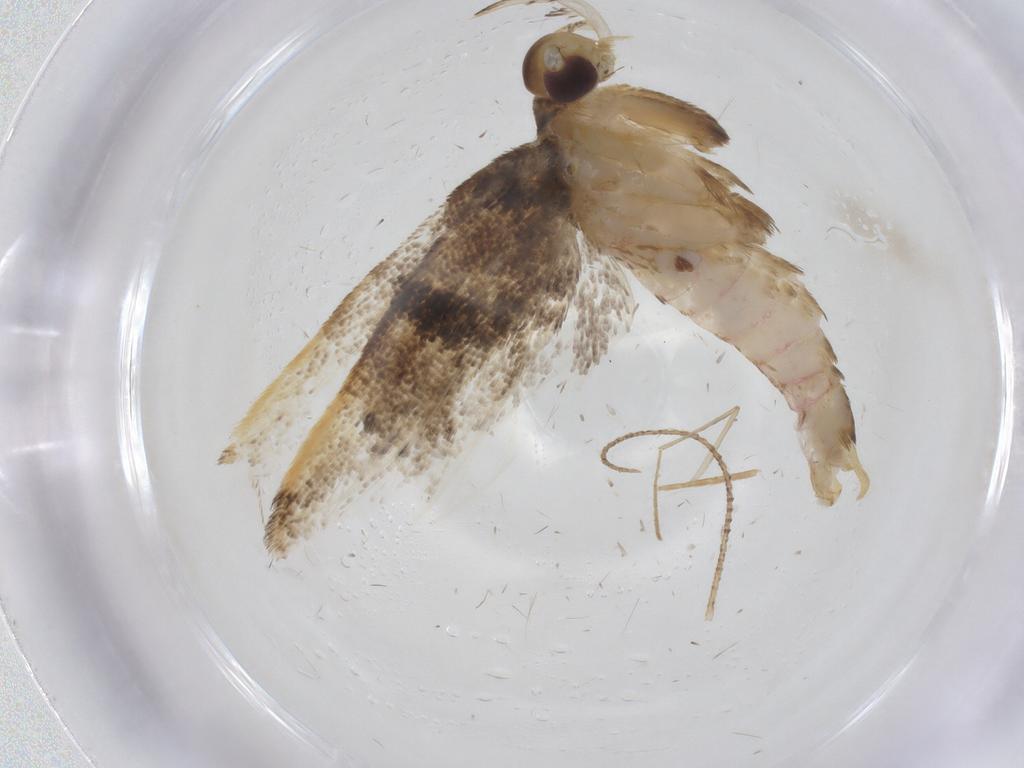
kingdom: Animalia
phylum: Arthropoda
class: Insecta
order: Lepidoptera
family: Lecithoceridae
